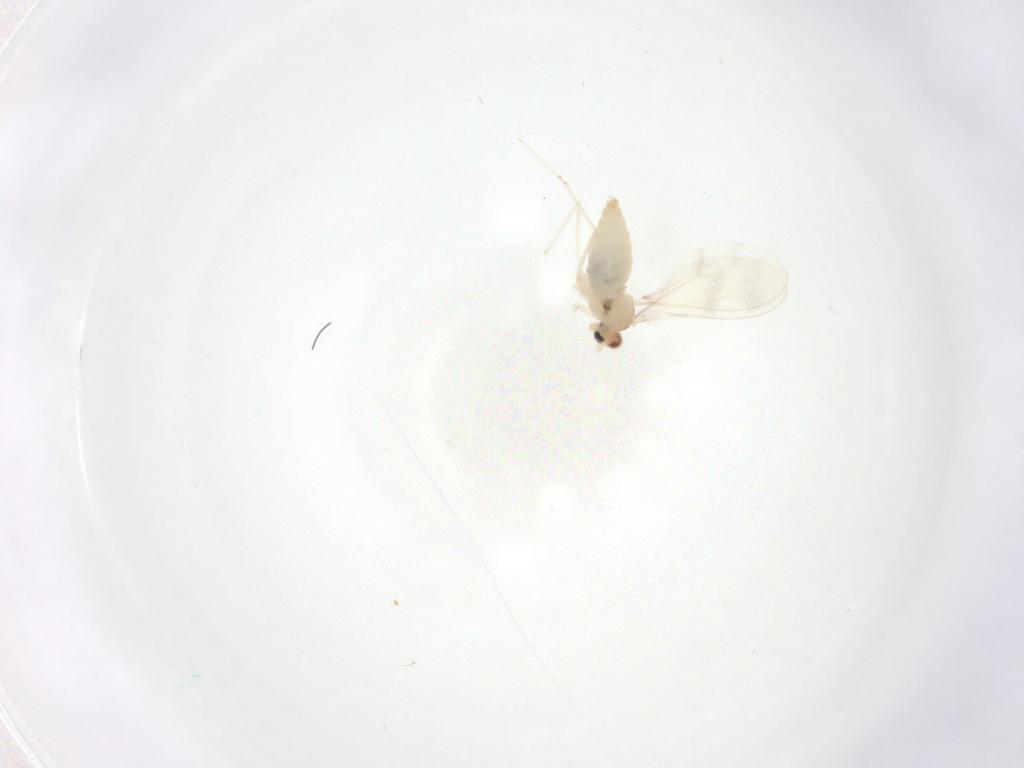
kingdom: Animalia
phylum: Arthropoda
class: Insecta
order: Diptera
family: Cecidomyiidae
